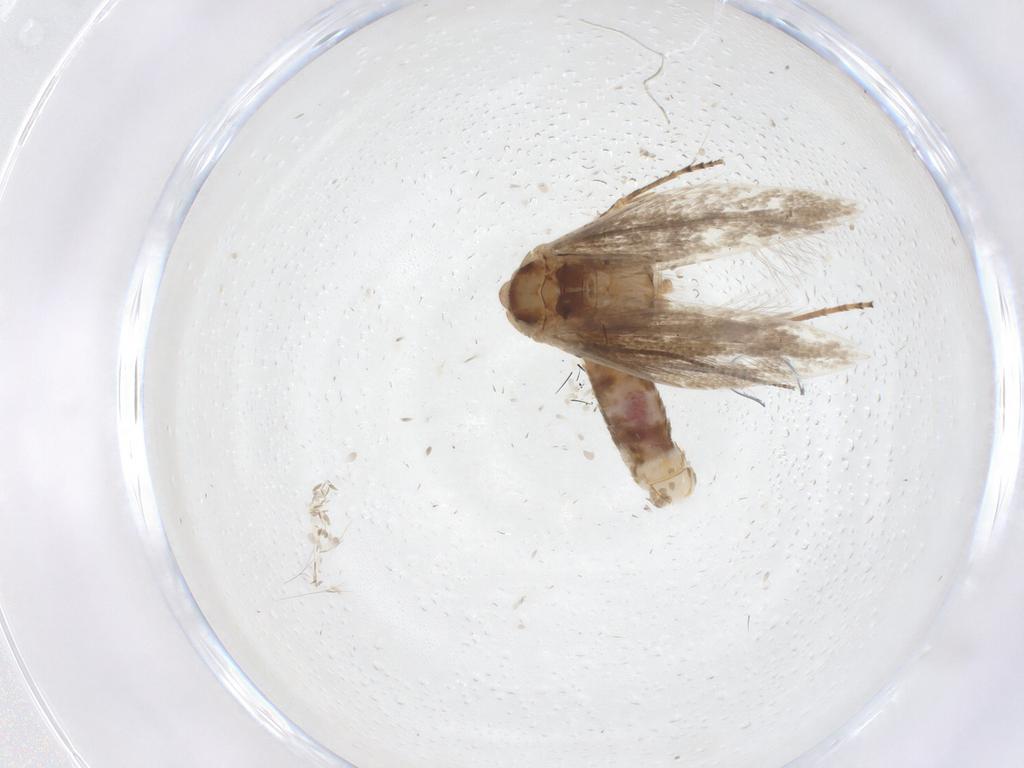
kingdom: Animalia
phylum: Arthropoda
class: Insecta
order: Lepidoptera
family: Bucculatricidae
